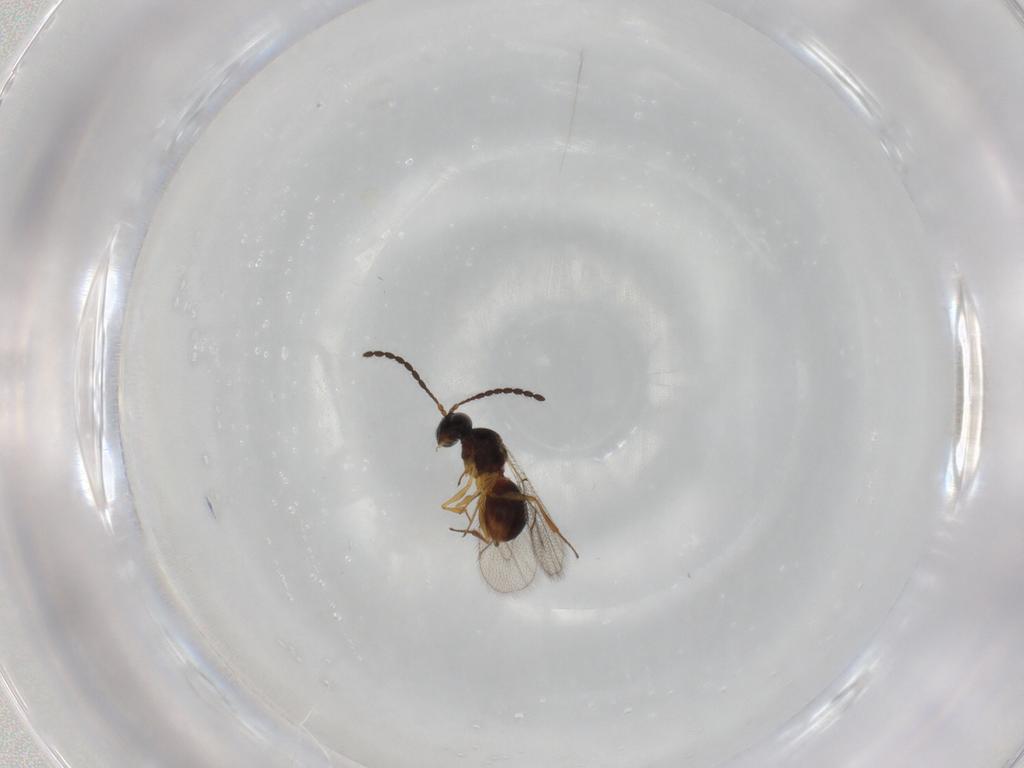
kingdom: Animalia
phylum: Arthropoda
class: Insecta
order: Hymenoptera
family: Figitidae
